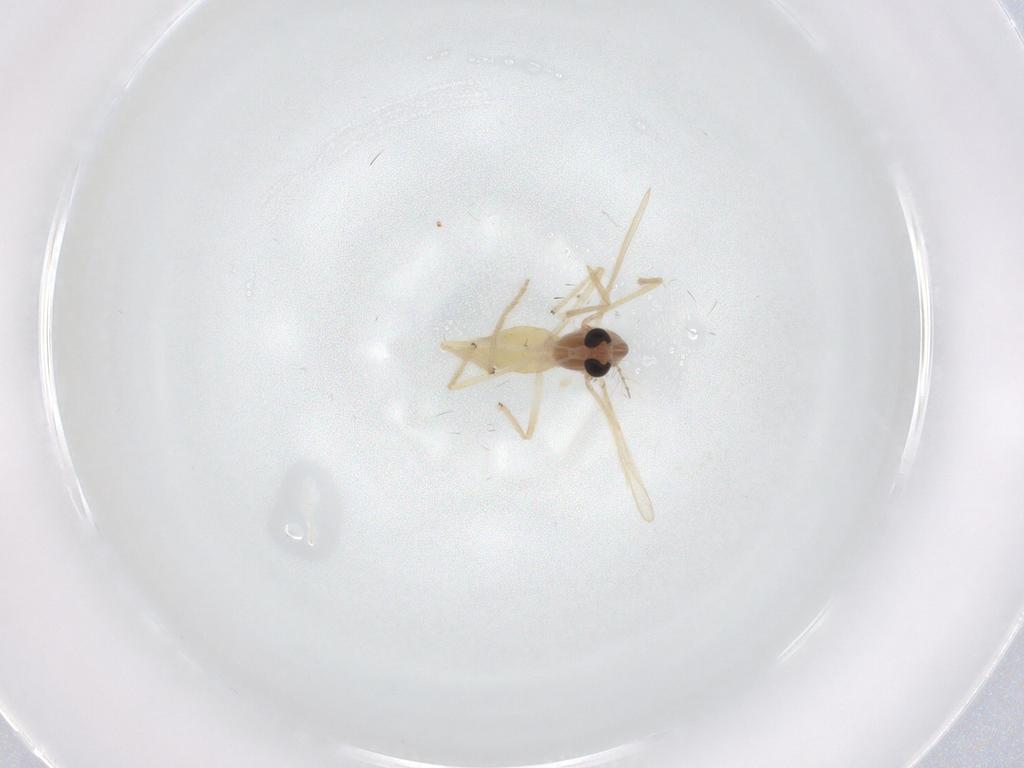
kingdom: Animalia
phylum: Arthropoda
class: Insecta
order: Diptera
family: Chironomidae
